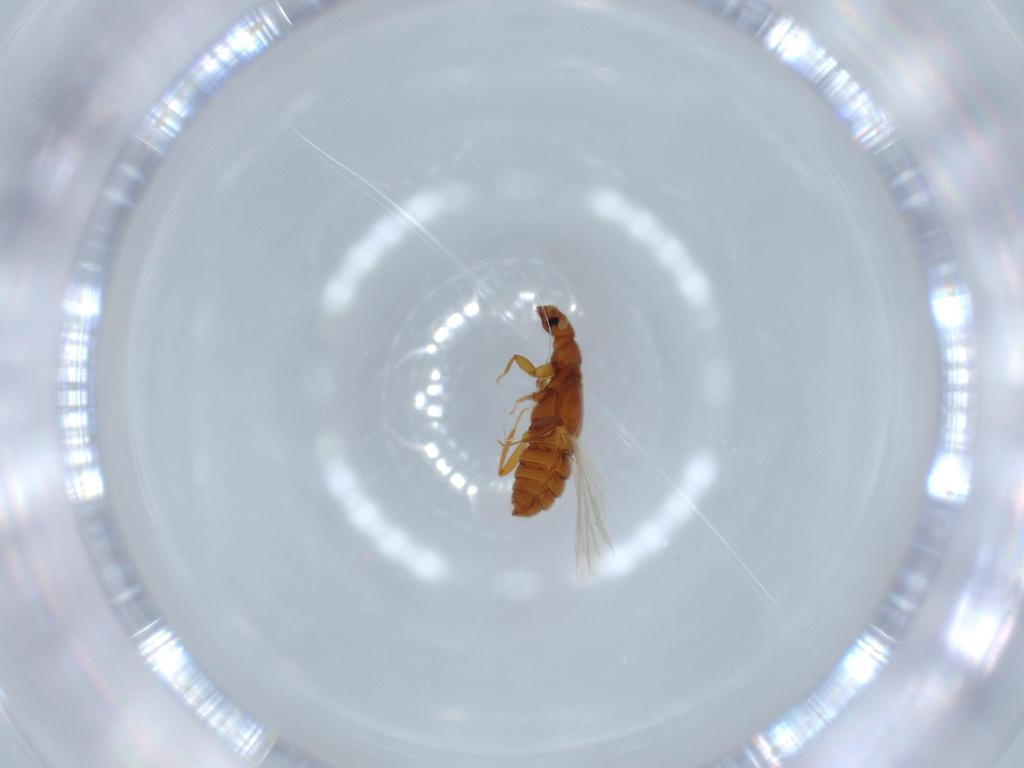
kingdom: Animalia
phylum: Arthropoda
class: Insecta
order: Coleoptera
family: Staphylinidae
